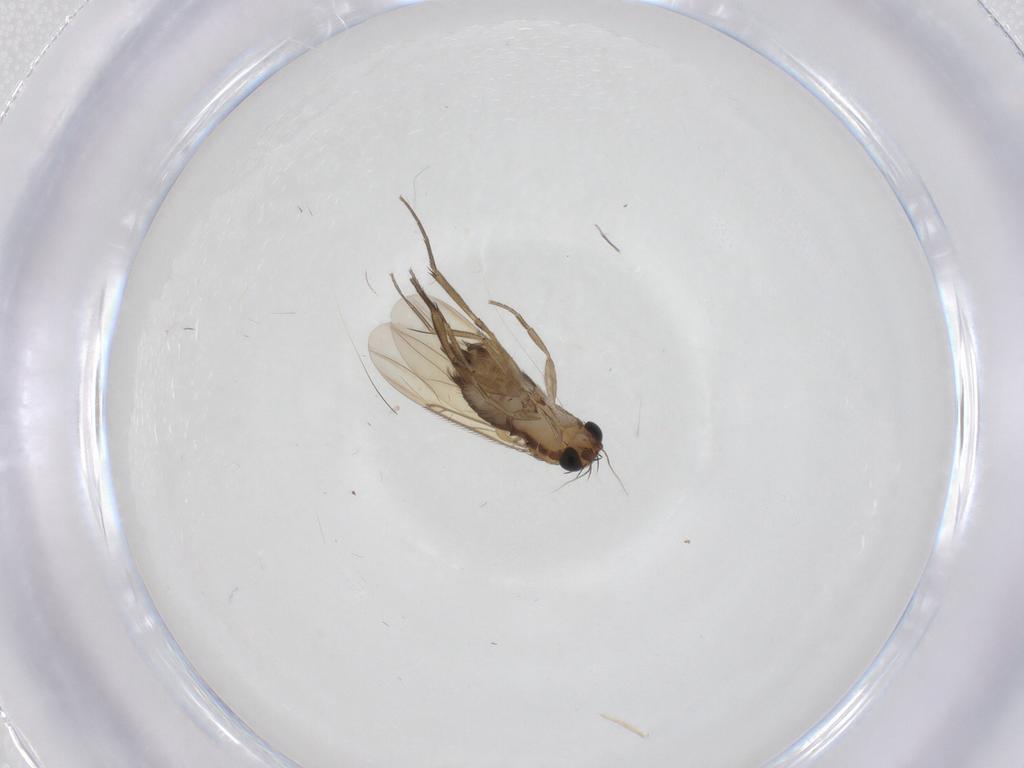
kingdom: Animalia
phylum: Arthropoda
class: Insecta
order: Diptera
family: Phoridae
